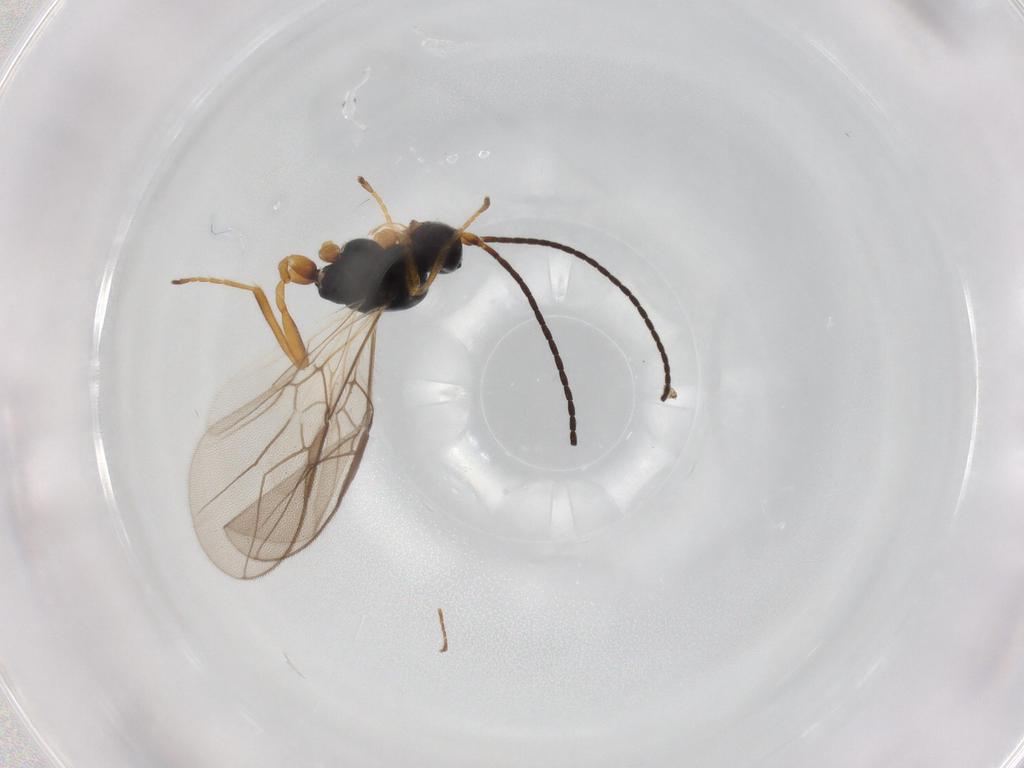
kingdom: Animalia
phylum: Arthropoda
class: Insecta
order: Hymenoptera
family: Braconidae
